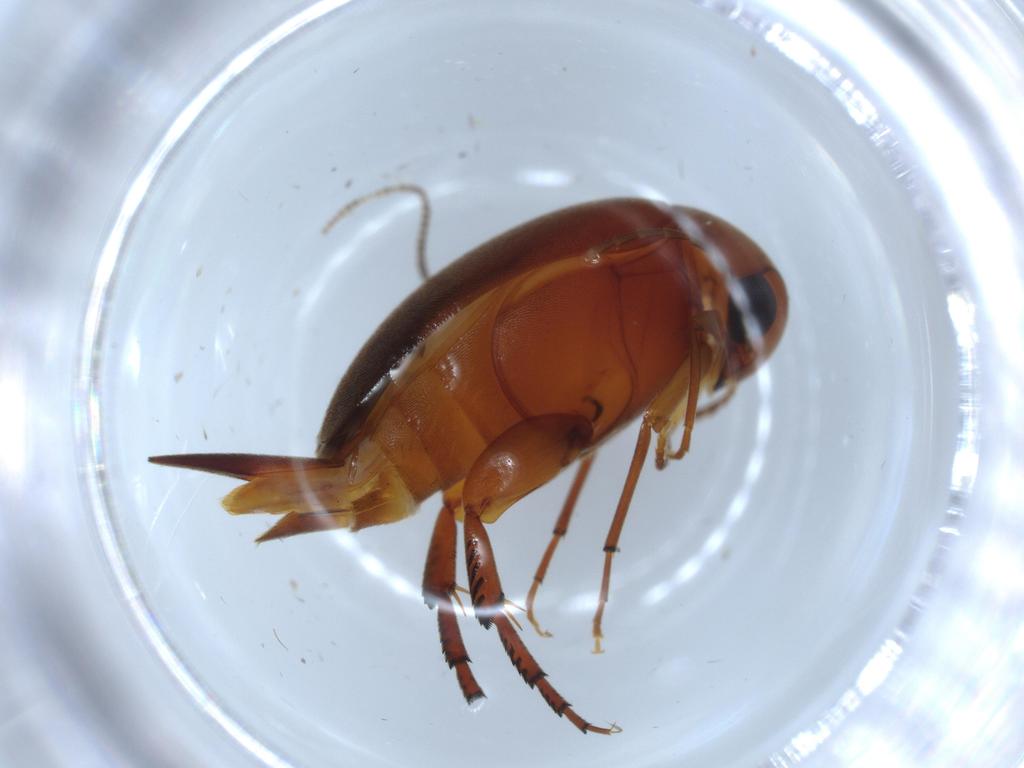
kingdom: Animalia
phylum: Arthropoda
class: Insecta
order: Coleoptera
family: Mordellidae
